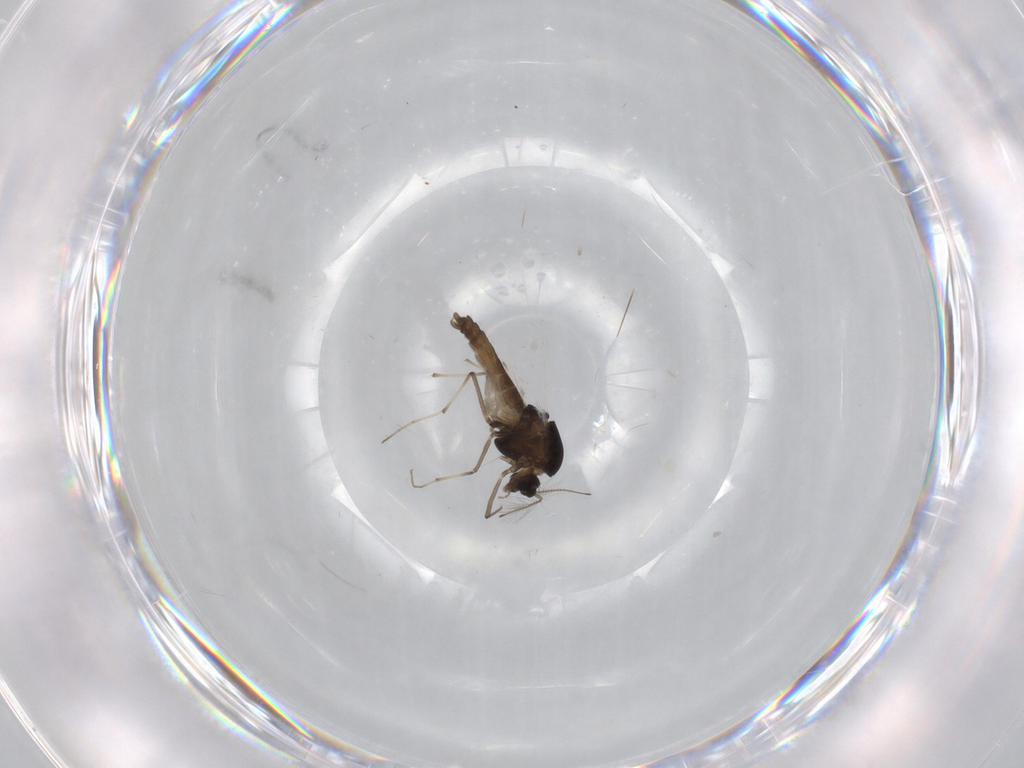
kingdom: Animalia
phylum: Arthropoda
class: Insecta
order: Diptera
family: Chironomidae
